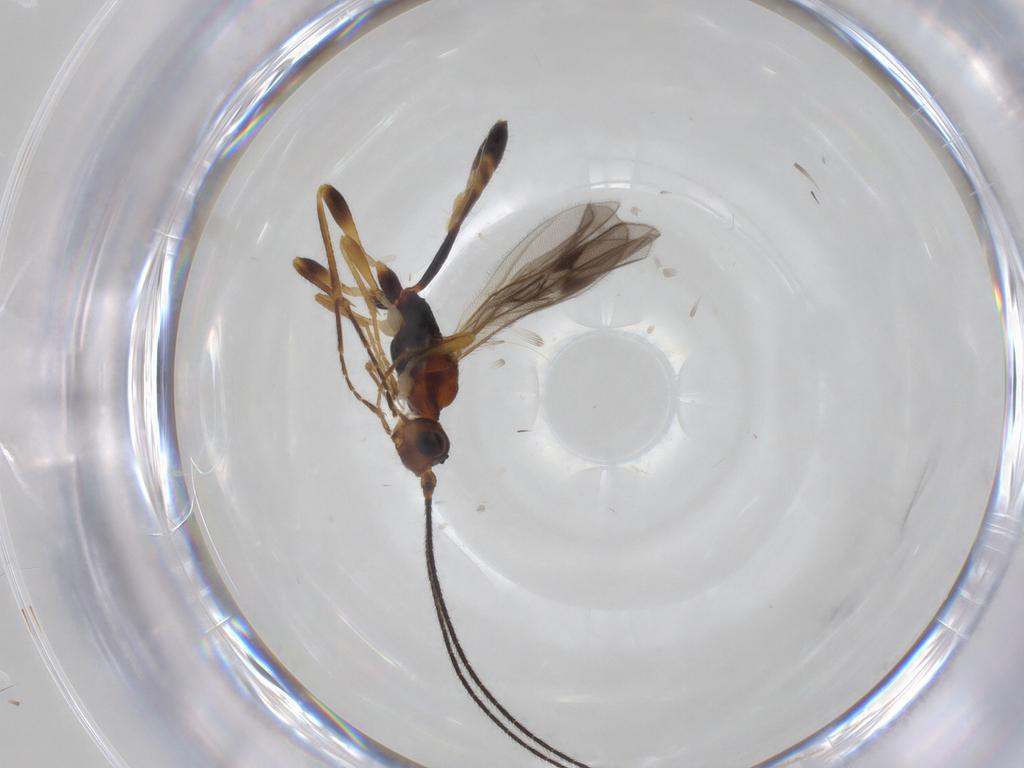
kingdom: Animalia
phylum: Arthropoda
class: Insecta
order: Hymenoptera
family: Braconidae
